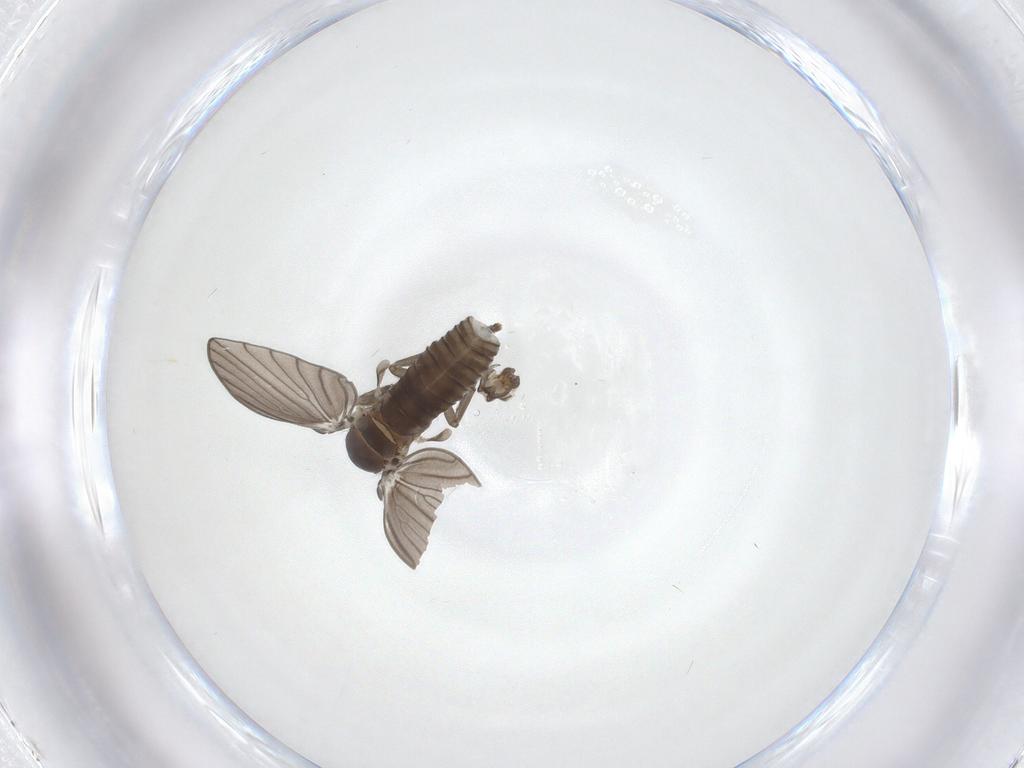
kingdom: Animalia
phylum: Arthropoda
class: Insecta
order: Diptera
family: Psychodidae
